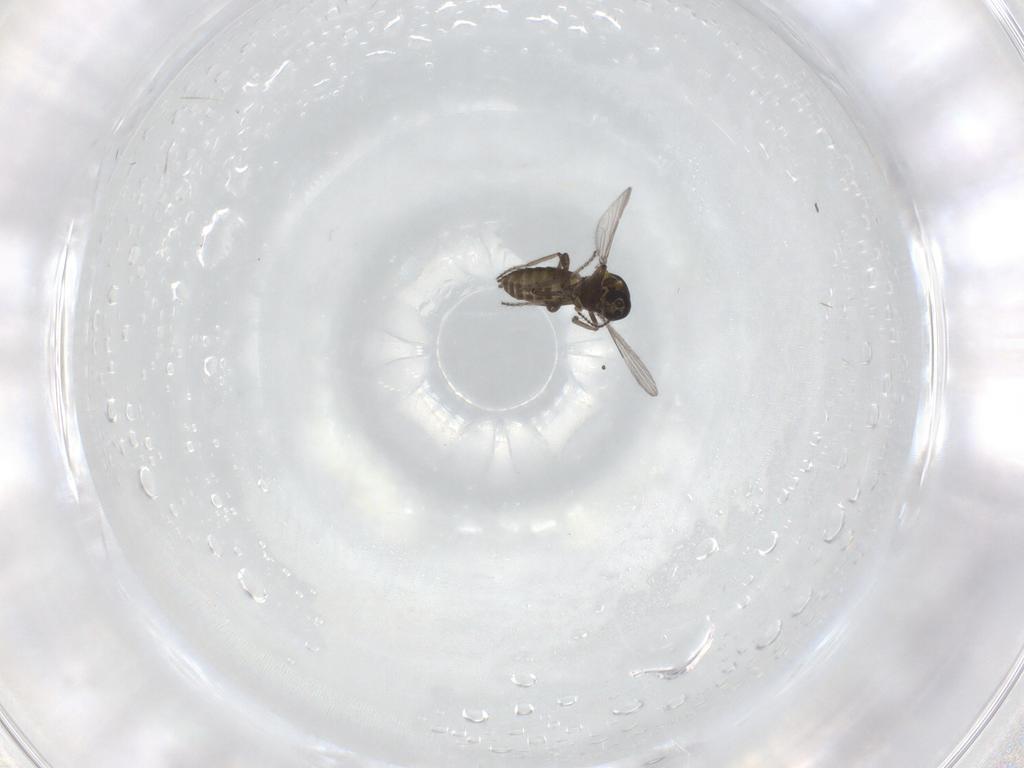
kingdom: Animalia
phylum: Arthropoda
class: Insecta
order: Diptera
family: Ceratopogonidae
